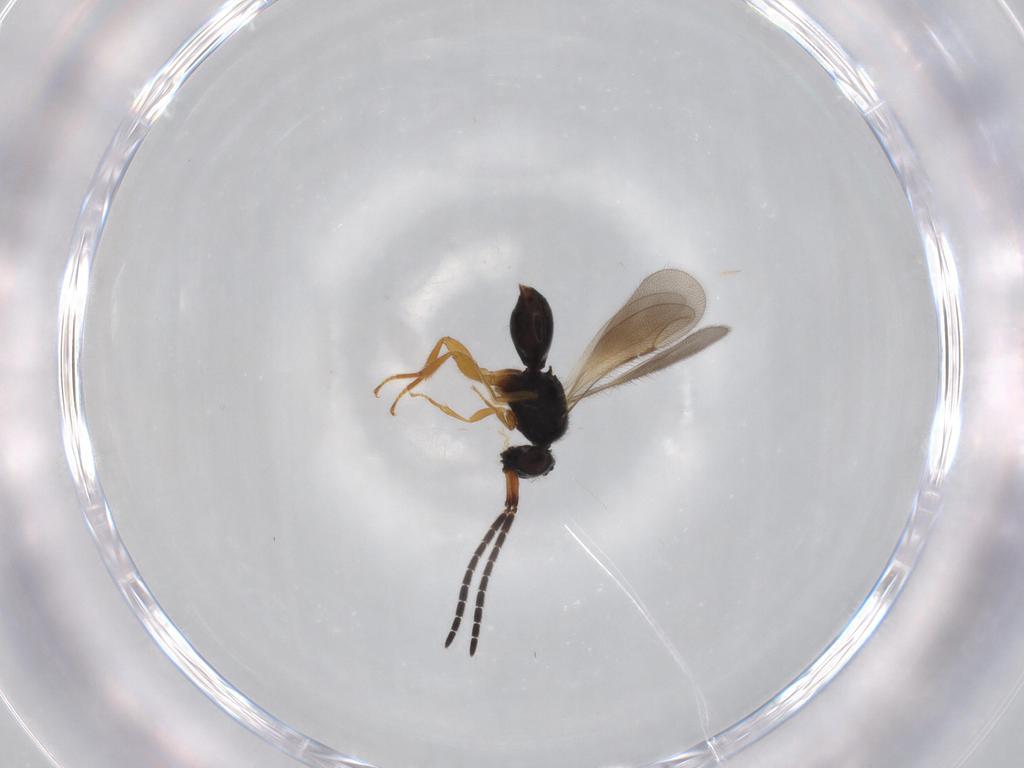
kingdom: Animalia
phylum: Arthropoda
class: Insecta
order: Hymenoptera
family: Ceraphronidae
